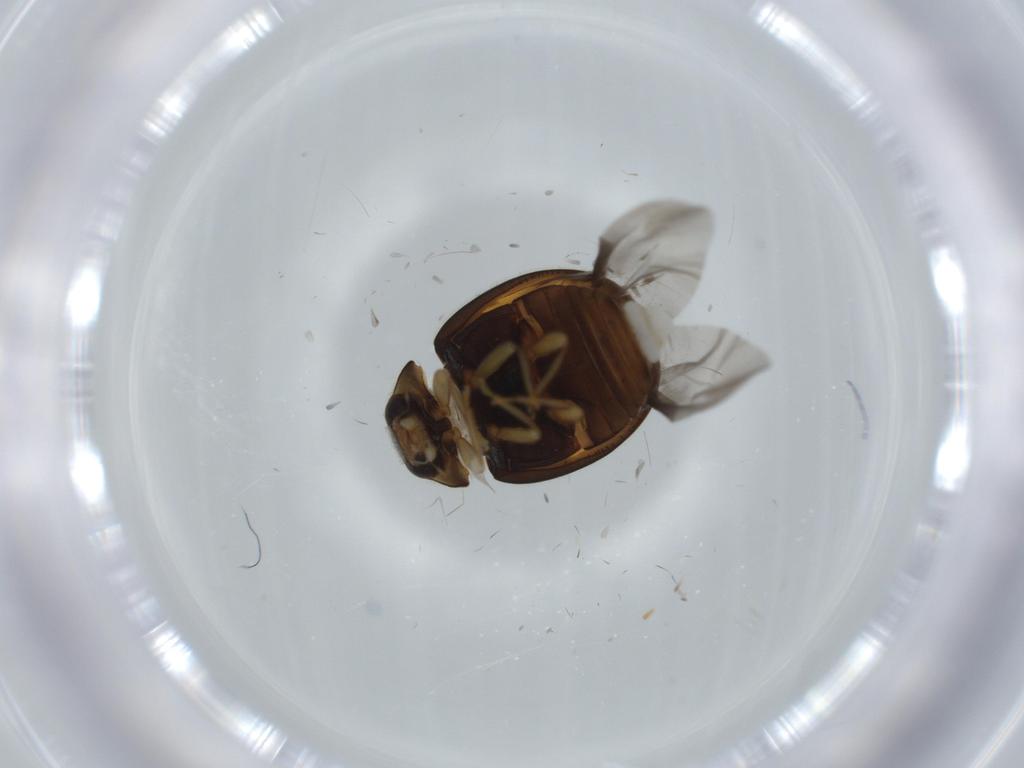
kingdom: Animalia
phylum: Arthropoda
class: Insecta
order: Coleoptera
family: Coccinellidae
